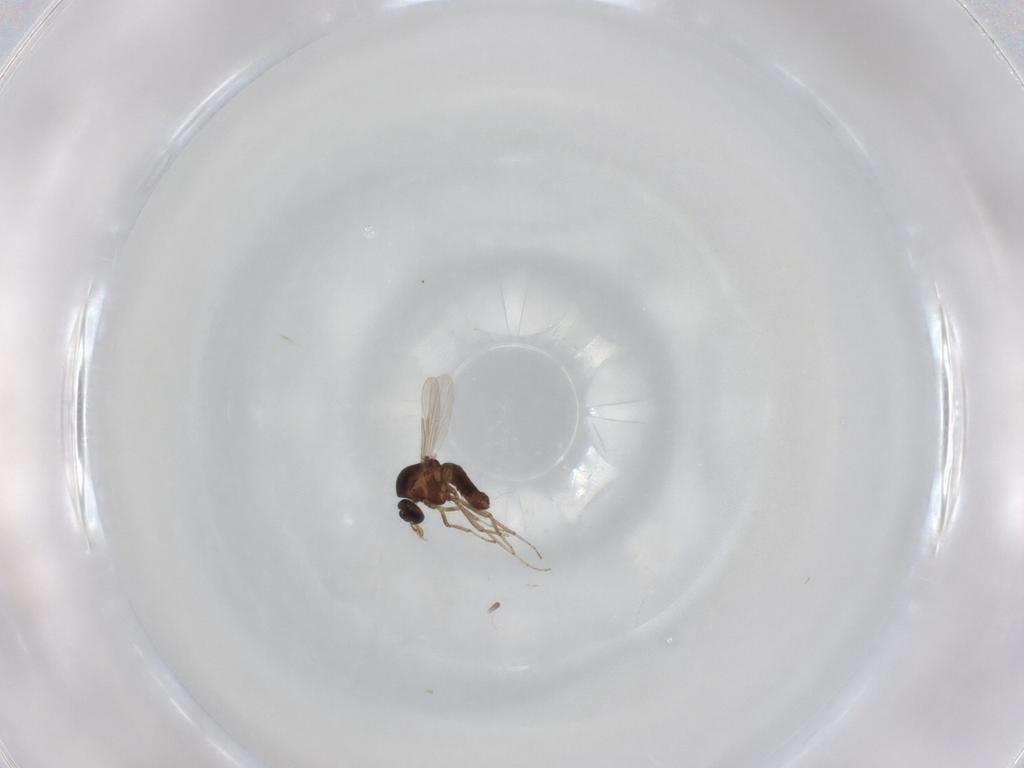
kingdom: Animalia
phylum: Arthropoda
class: Insecta
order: Diptera
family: Ceratopogonidae
